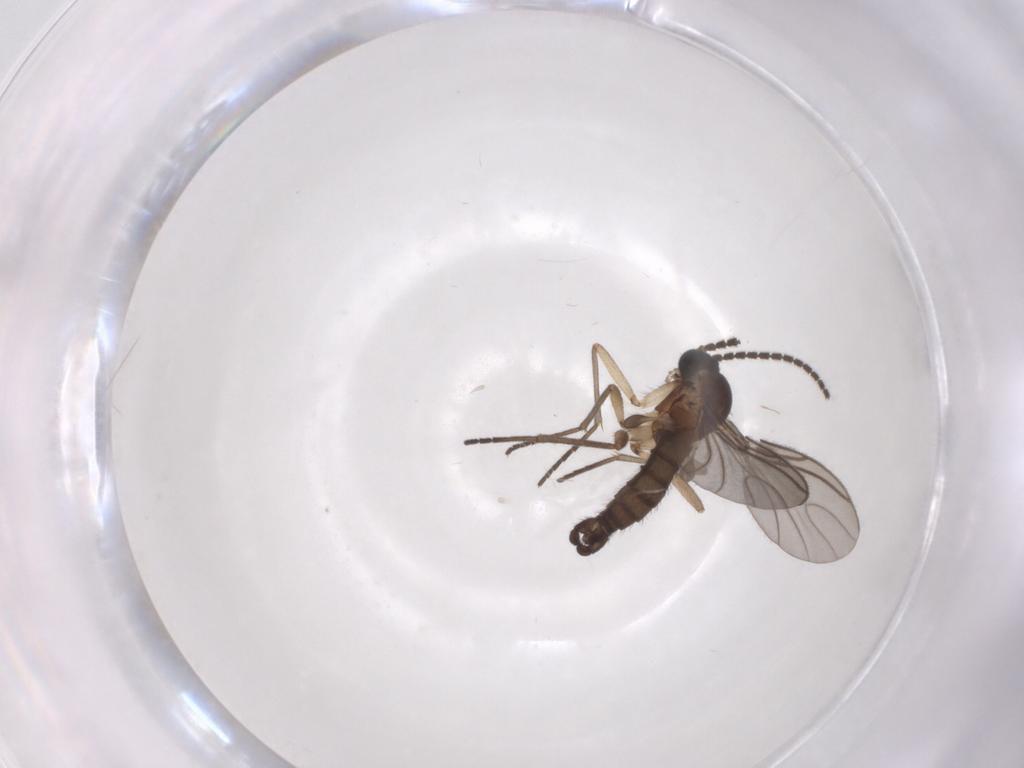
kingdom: Animalia
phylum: Arthropoda
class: Insecta
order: Diptera
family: Sciaridae
